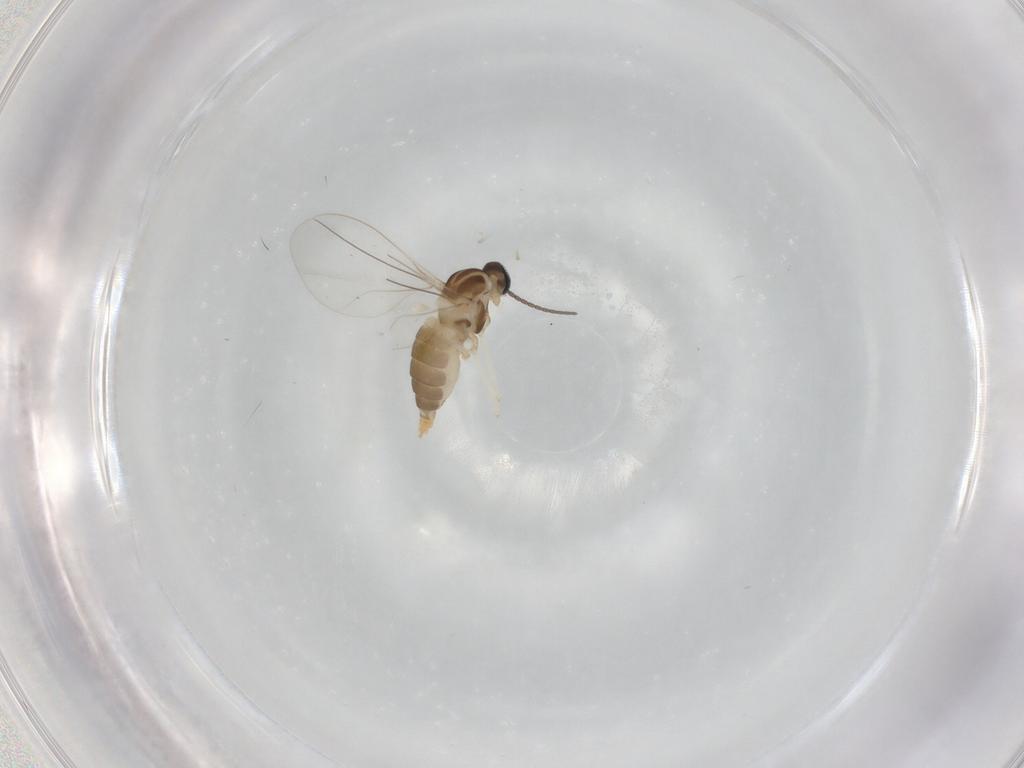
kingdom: Animalia
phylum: Arthropoda
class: Insecta
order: Diptera
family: Cecidomyiidae
